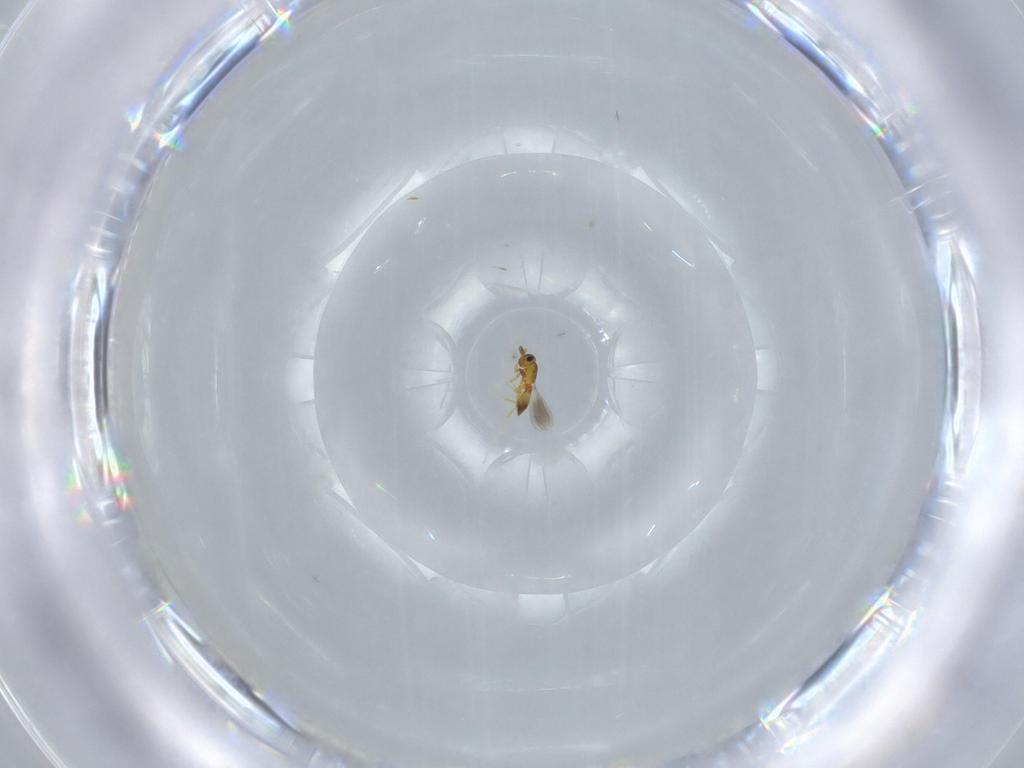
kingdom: Animalia
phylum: Arthropoda
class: Insecta
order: Hymenoptera
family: Platygastridae
